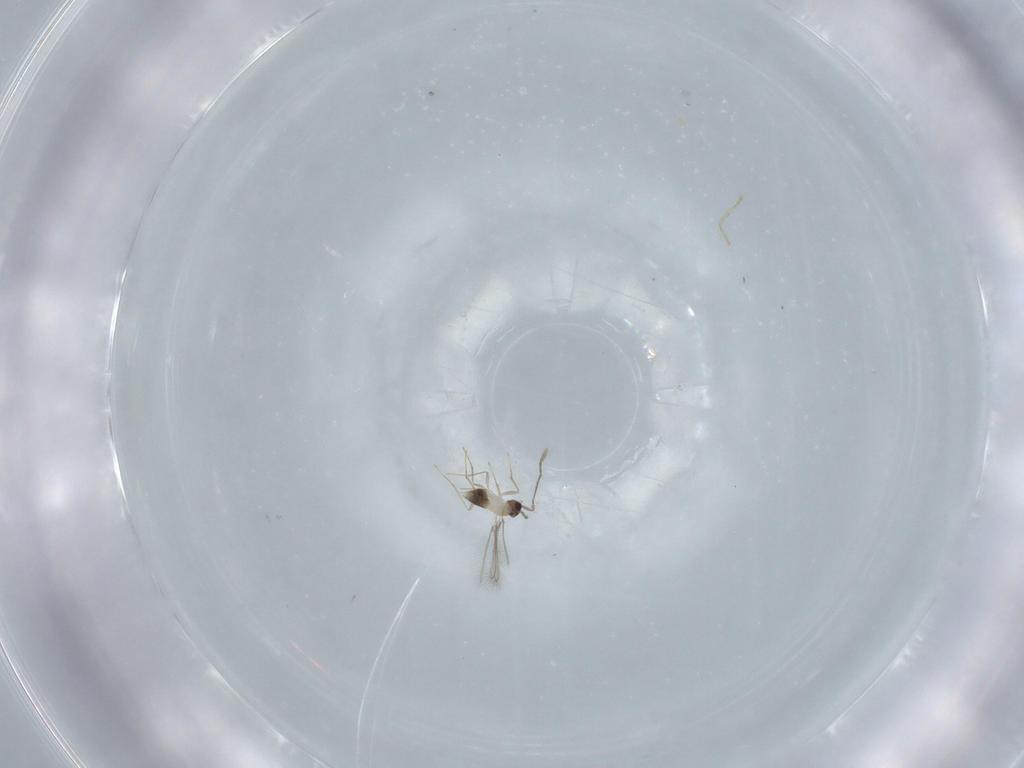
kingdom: Animalia
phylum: Arthropoda
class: Insecta
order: Hymenoptera
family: Mymaridae
